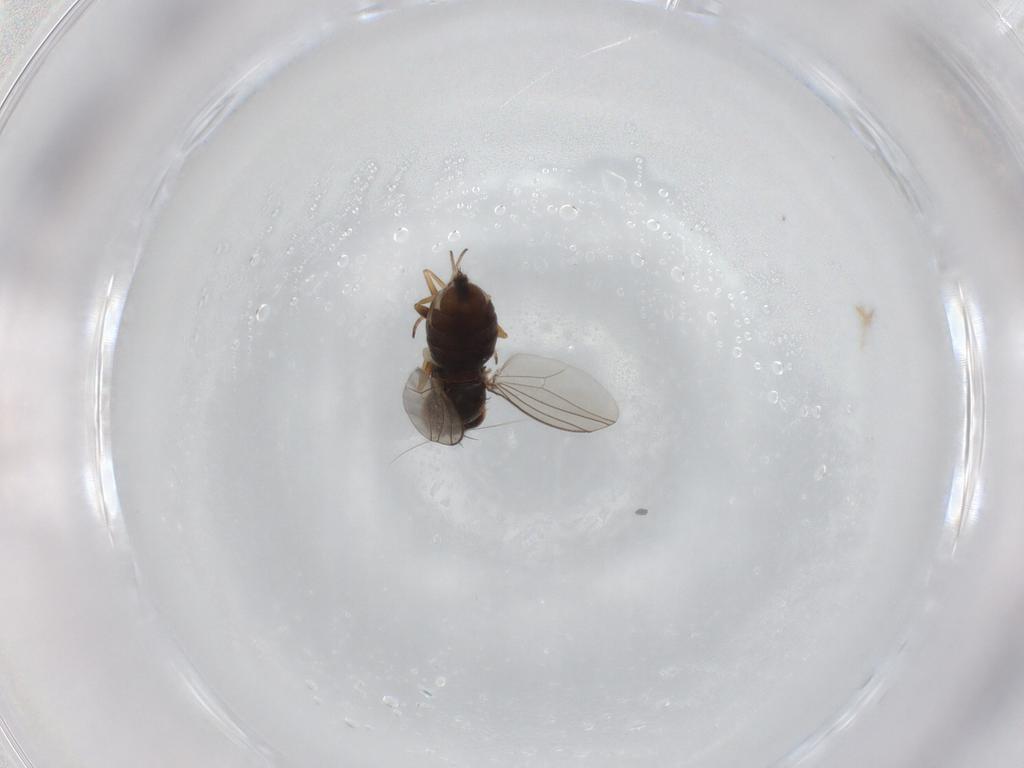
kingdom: Animalia
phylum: Arthropoda
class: Insecta
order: Diptera
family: Dolichopodidae
